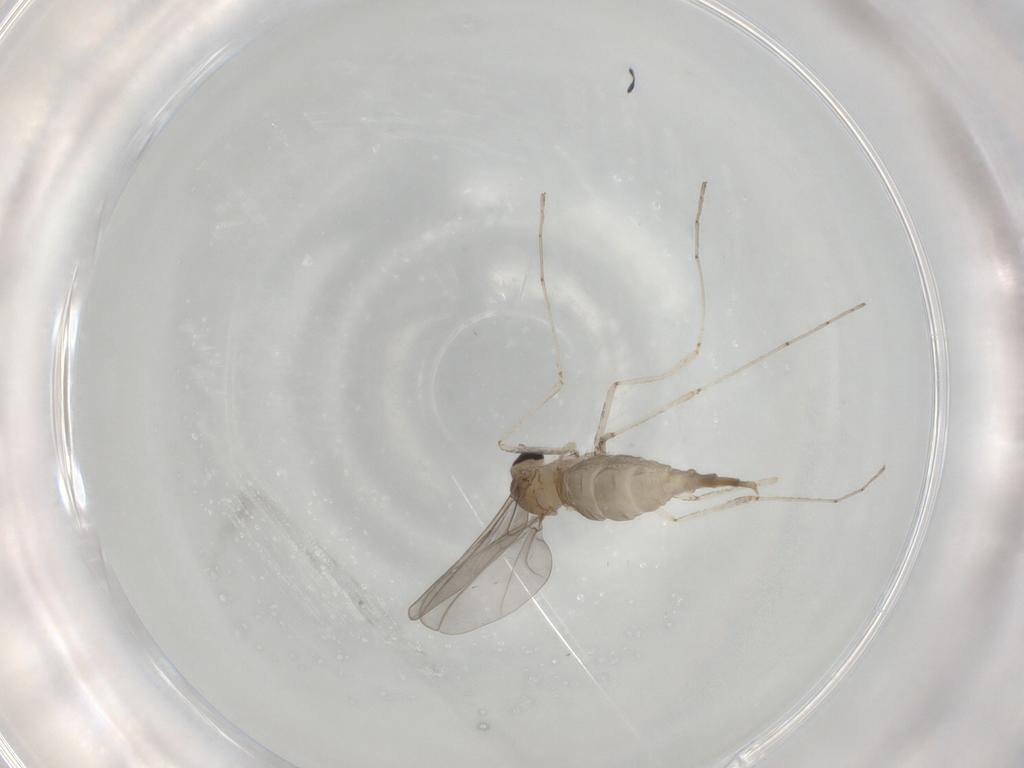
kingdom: Animalia
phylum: Arthropoda
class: Insecta
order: Diptera
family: Cecidomyiidae
